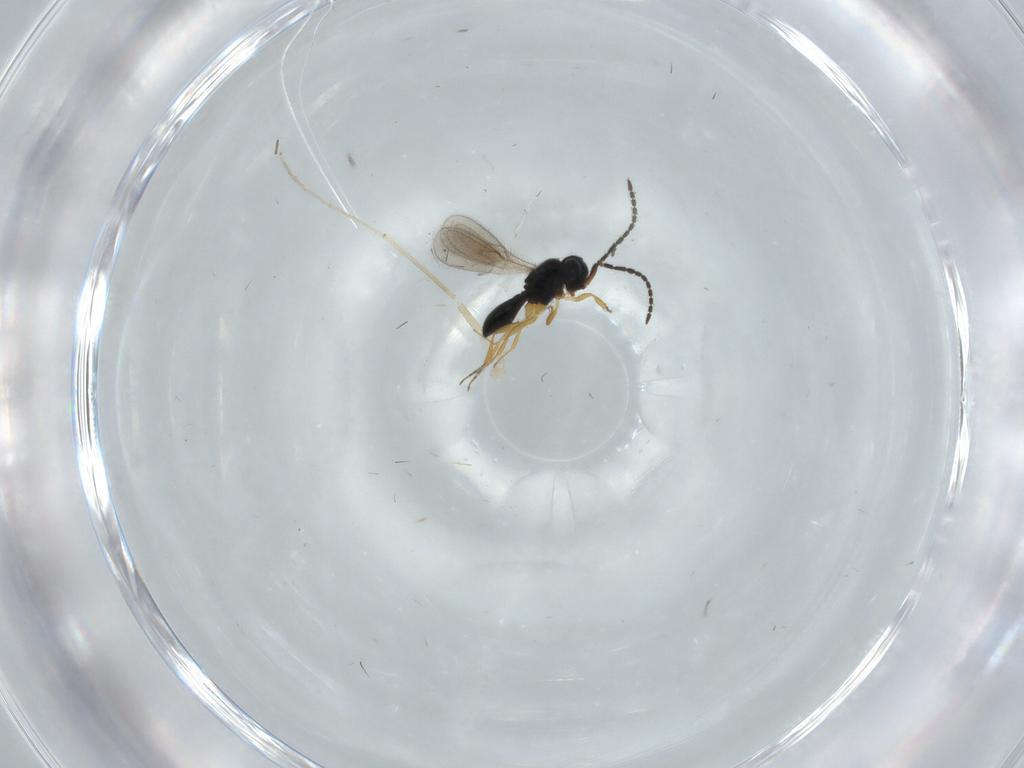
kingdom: Animalia
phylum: Arthropoda
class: Insecta
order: Hymenoptera
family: Scelionidae
